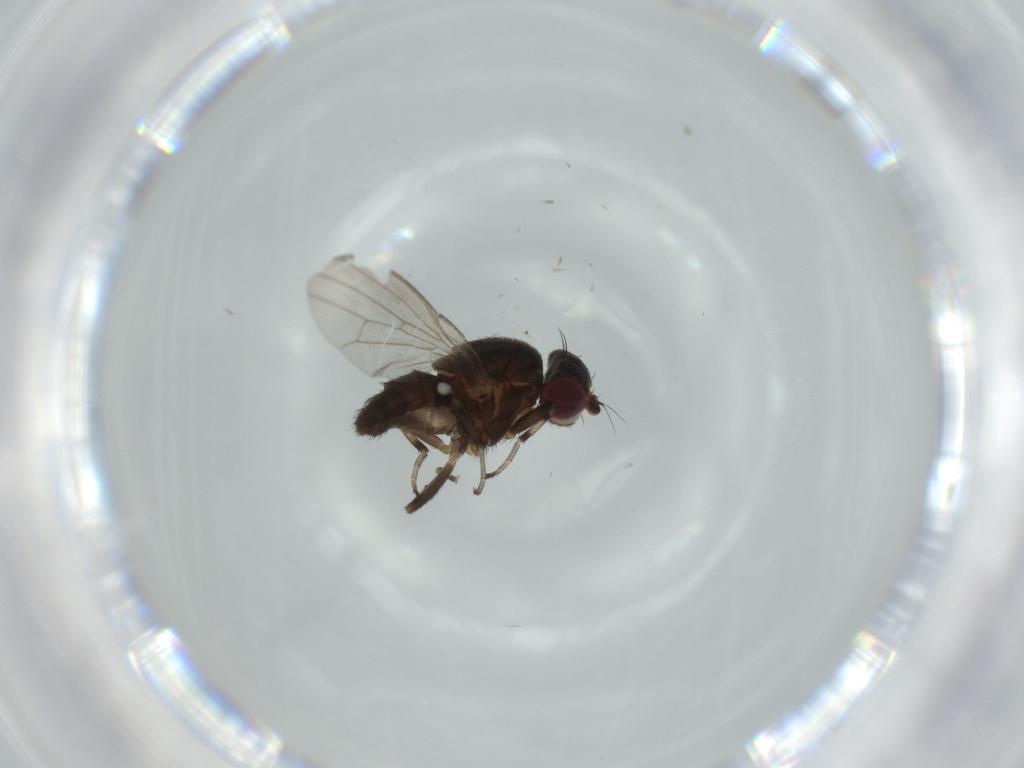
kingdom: Animalia
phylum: Arthropoda
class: Insecta
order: Diptera
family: Heleomyzidae
